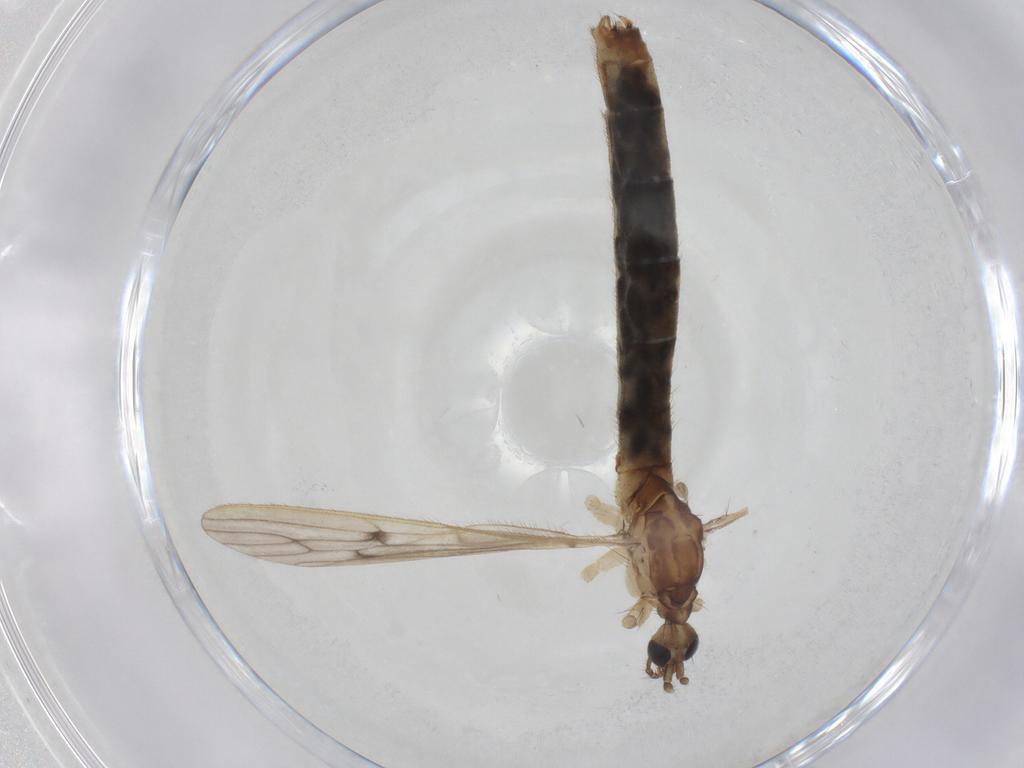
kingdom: Animalia
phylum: Arthropoda
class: Insecta
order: Diptera
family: Limoniidae
